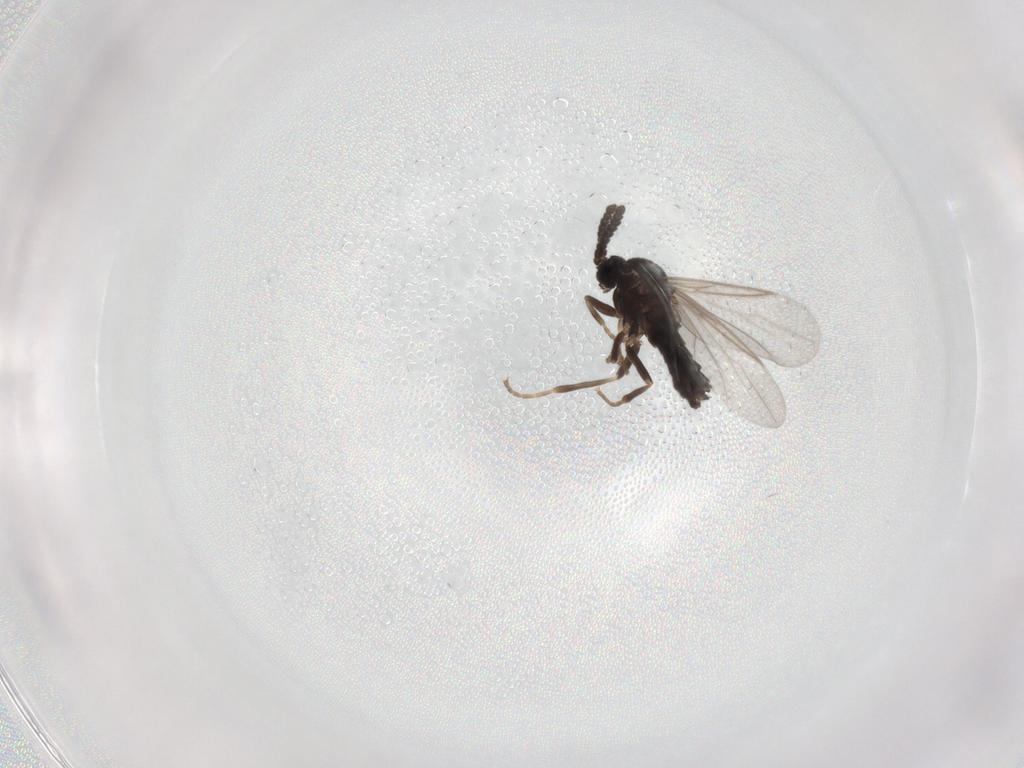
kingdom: Animalia
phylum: Arthropoda
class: Insecta
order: Diptera
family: Scatopsidae
